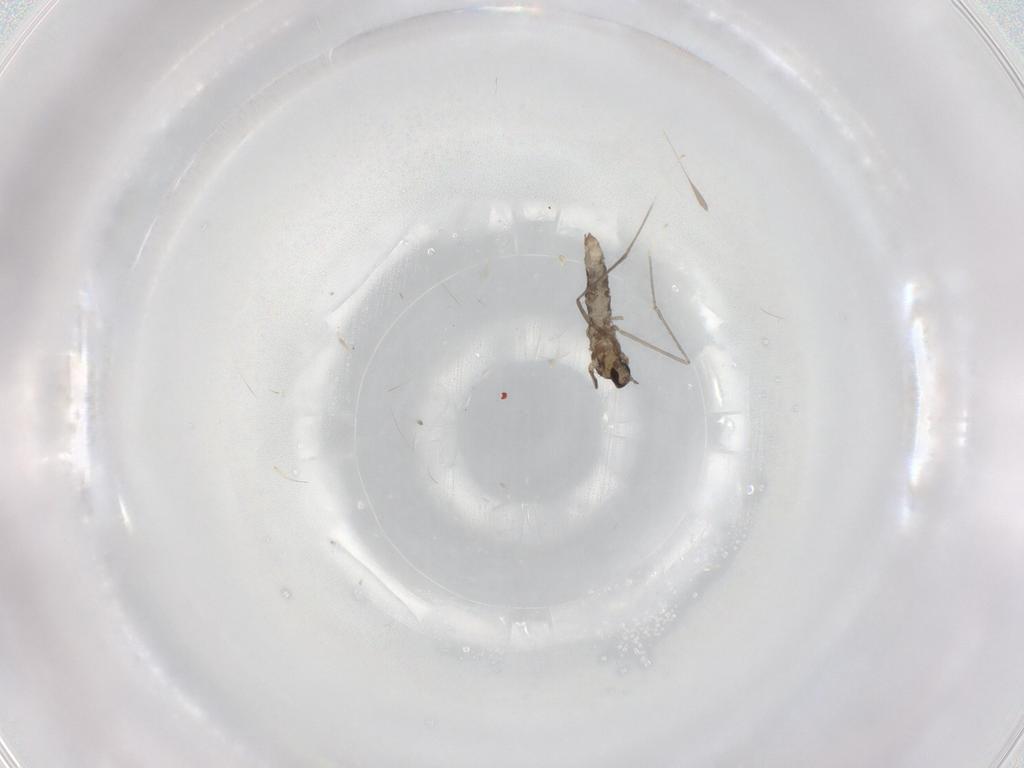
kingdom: Animalia
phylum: Arthropoda
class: Insecta
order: Diptera
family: Cecidomyiidae
